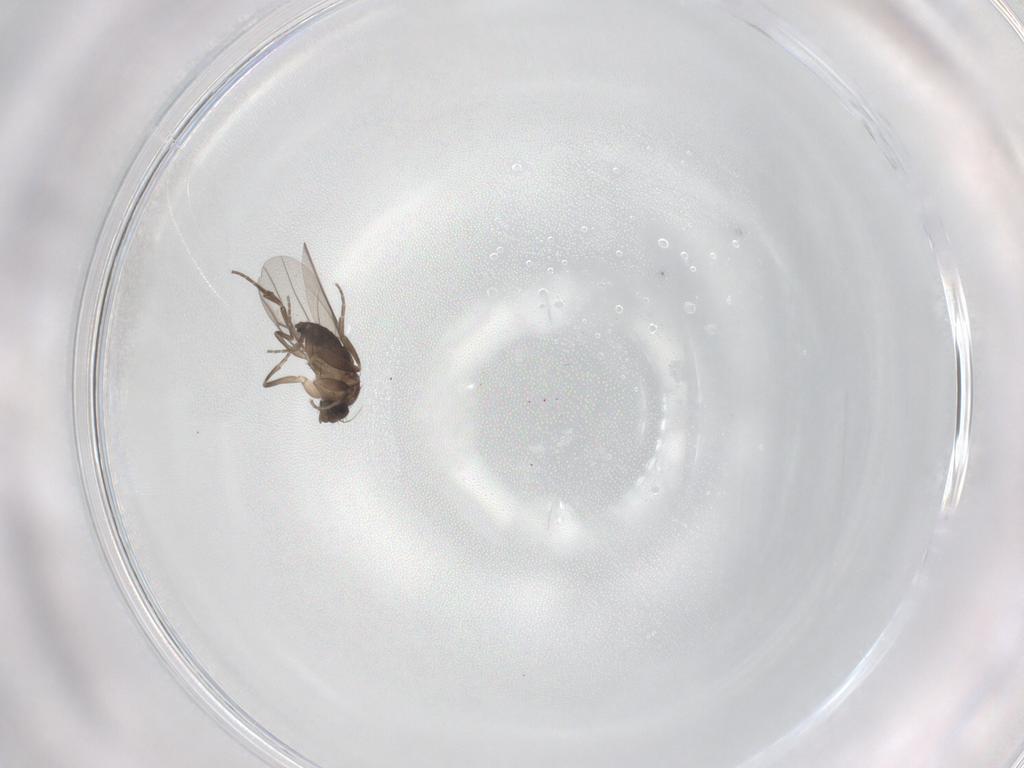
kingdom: Animalia
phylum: Arthropoda
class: Insecta
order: Diptera
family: Phoridae
